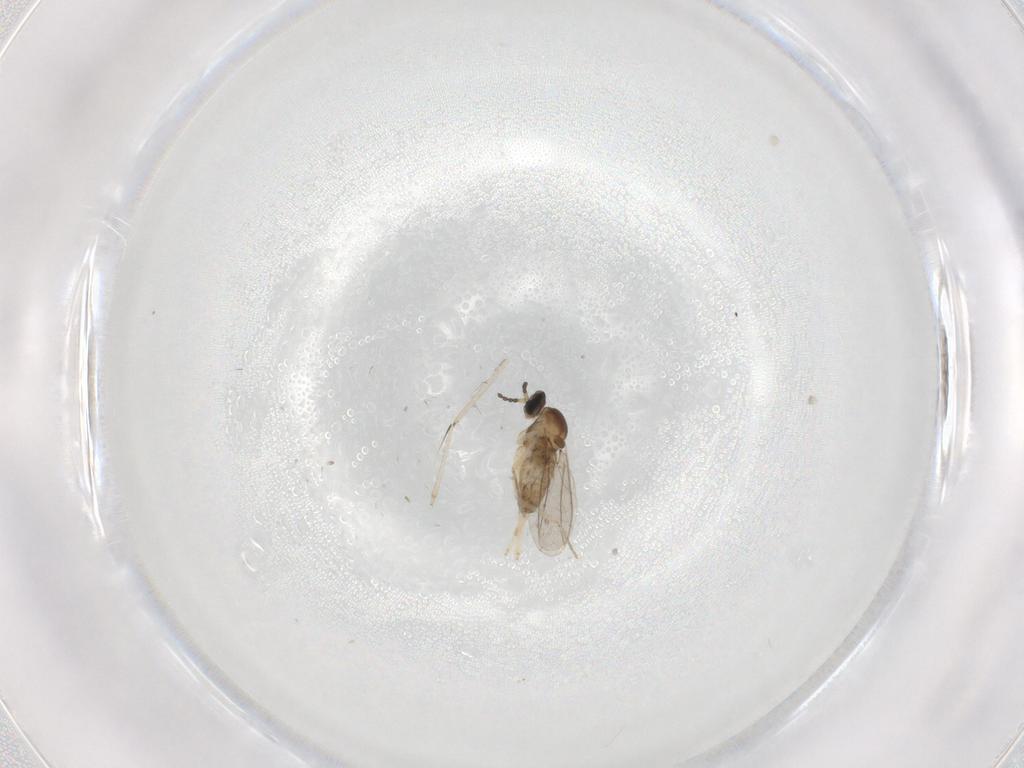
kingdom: Animalia
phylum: Arthropoda
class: Insecta
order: Diptera
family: Cecidomyiidae
